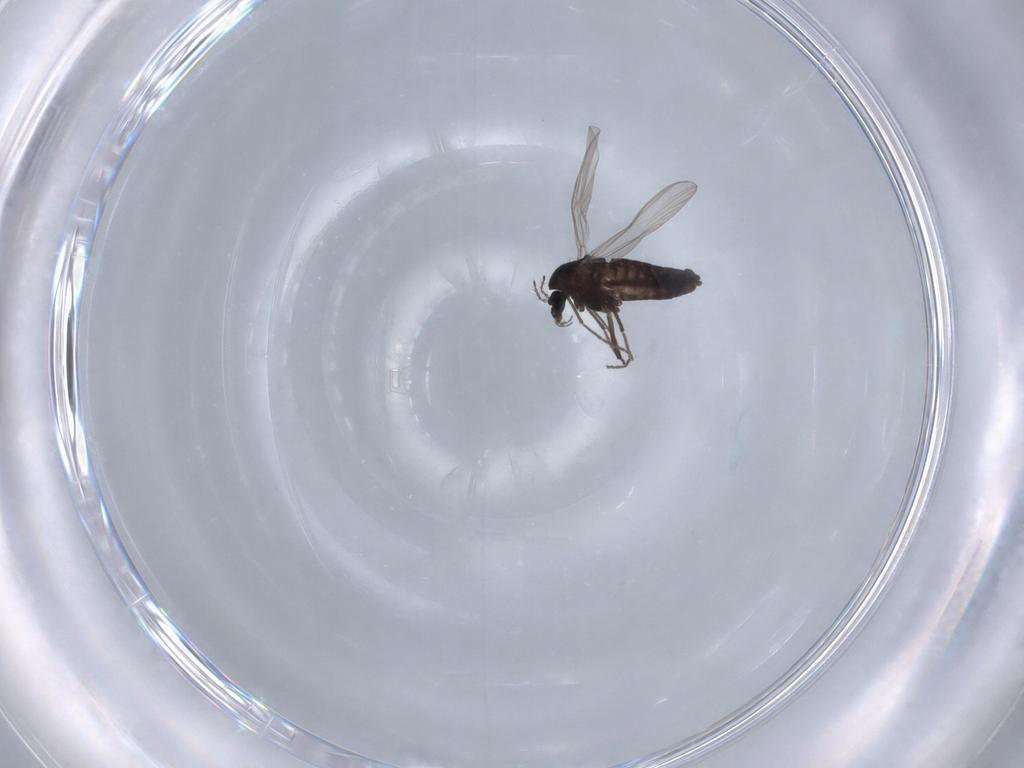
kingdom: Animalia
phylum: Arthropoda
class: Insecta
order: Diptera
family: Chironomidae
